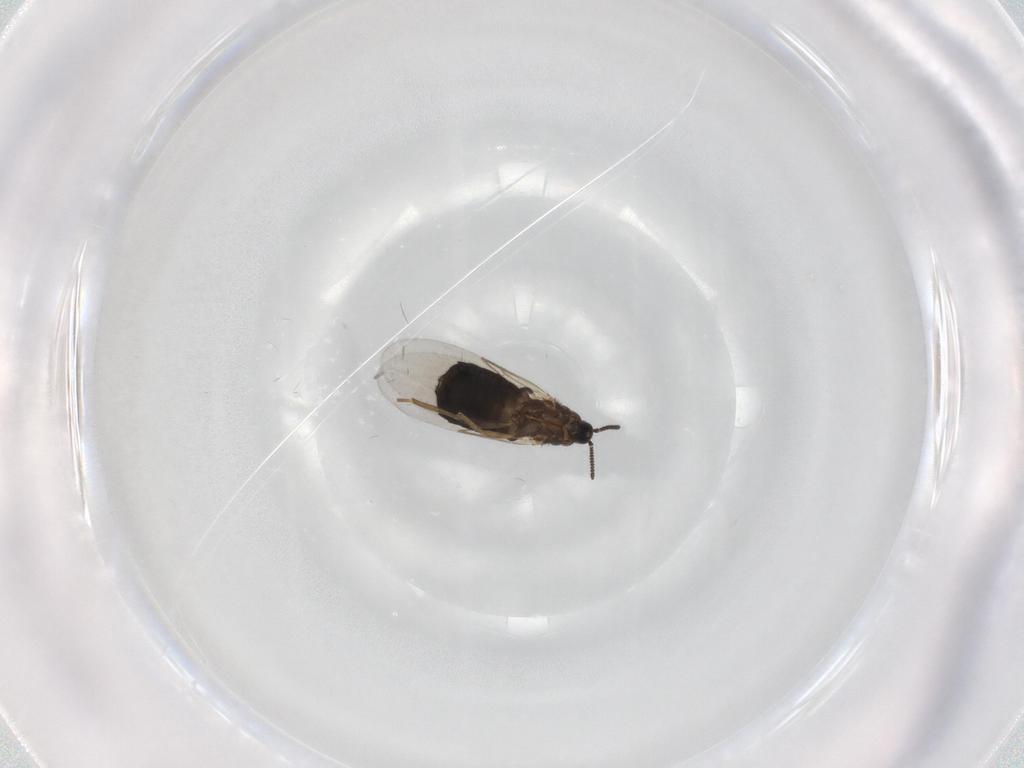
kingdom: Animalia
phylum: Arthropoda
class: Insecta
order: Diptera
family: Scatopsidae
